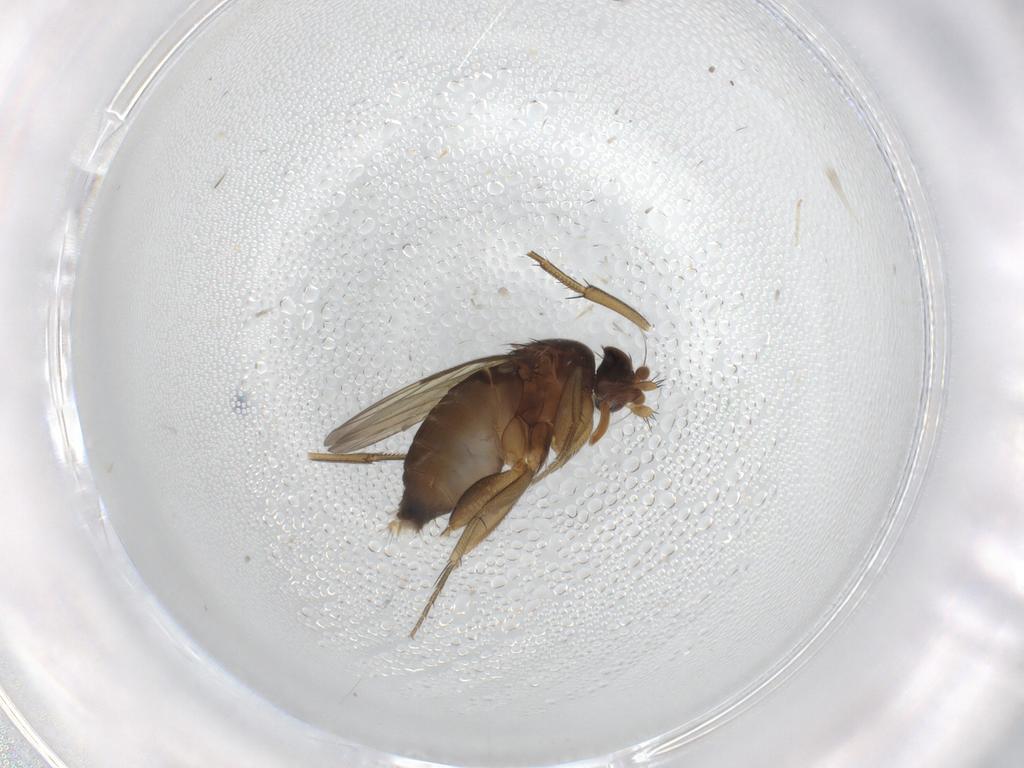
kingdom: Animalia
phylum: Arthropoda
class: Insecta
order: Diptera
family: Phoridae
